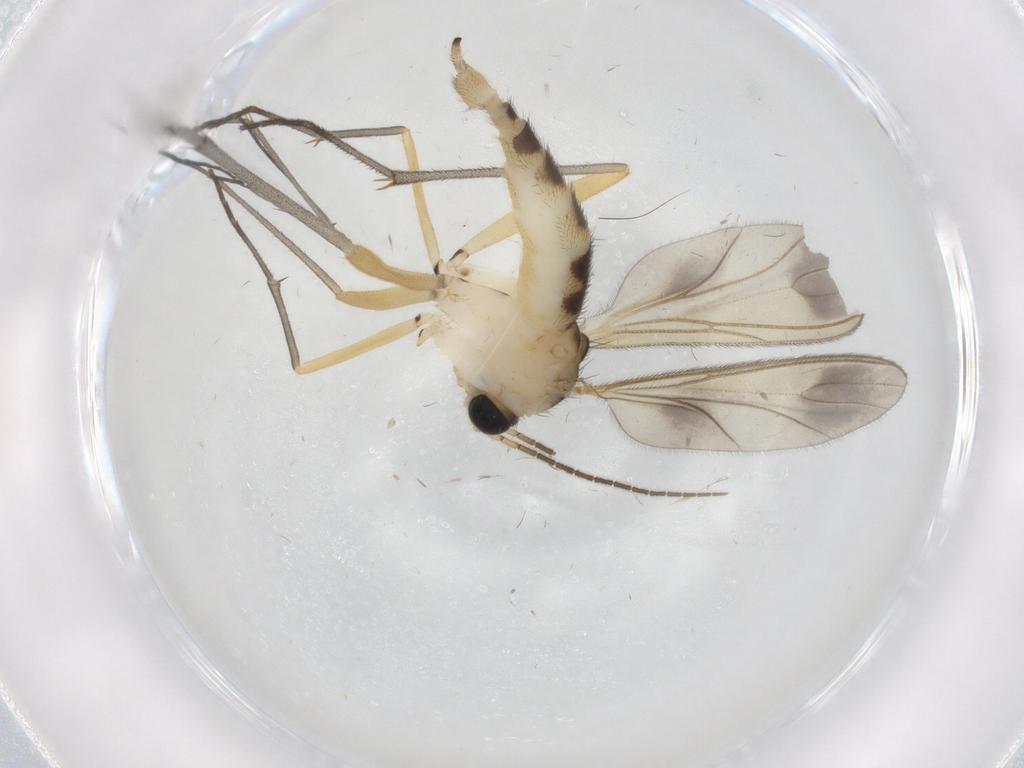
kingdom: Animalia
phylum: Arthropoda
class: Insecta
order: Diptera
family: Sciaridae
